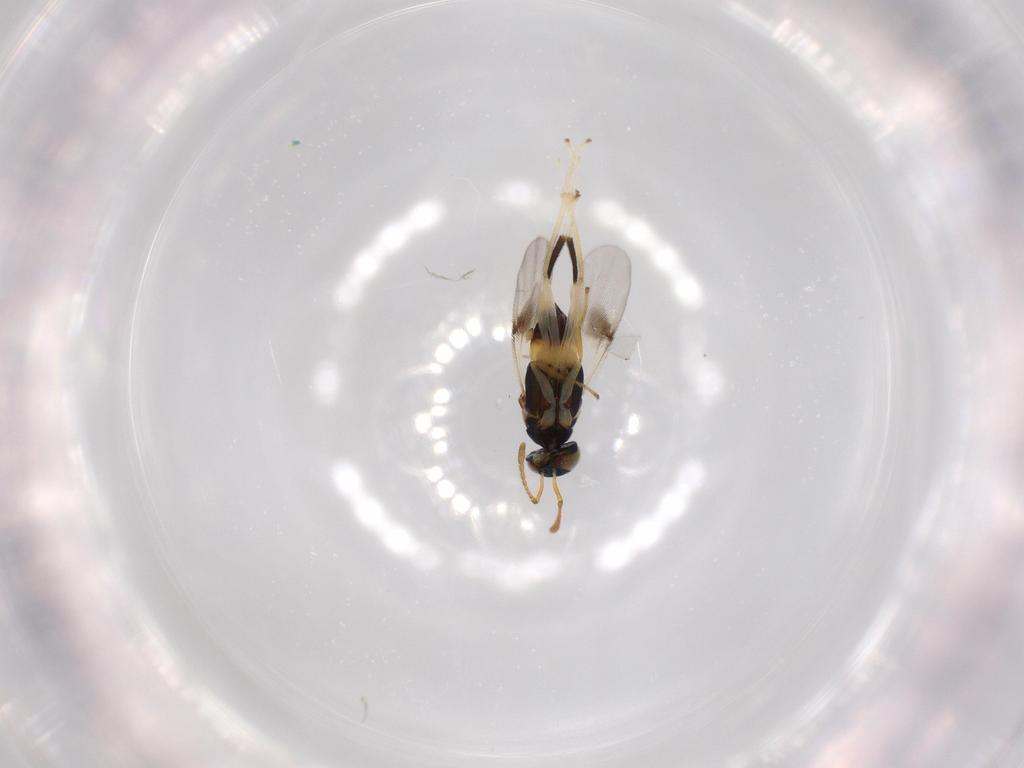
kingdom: Animalia
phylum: Arthropoda
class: Insecta
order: Hymenoptera
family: Scelionidae
